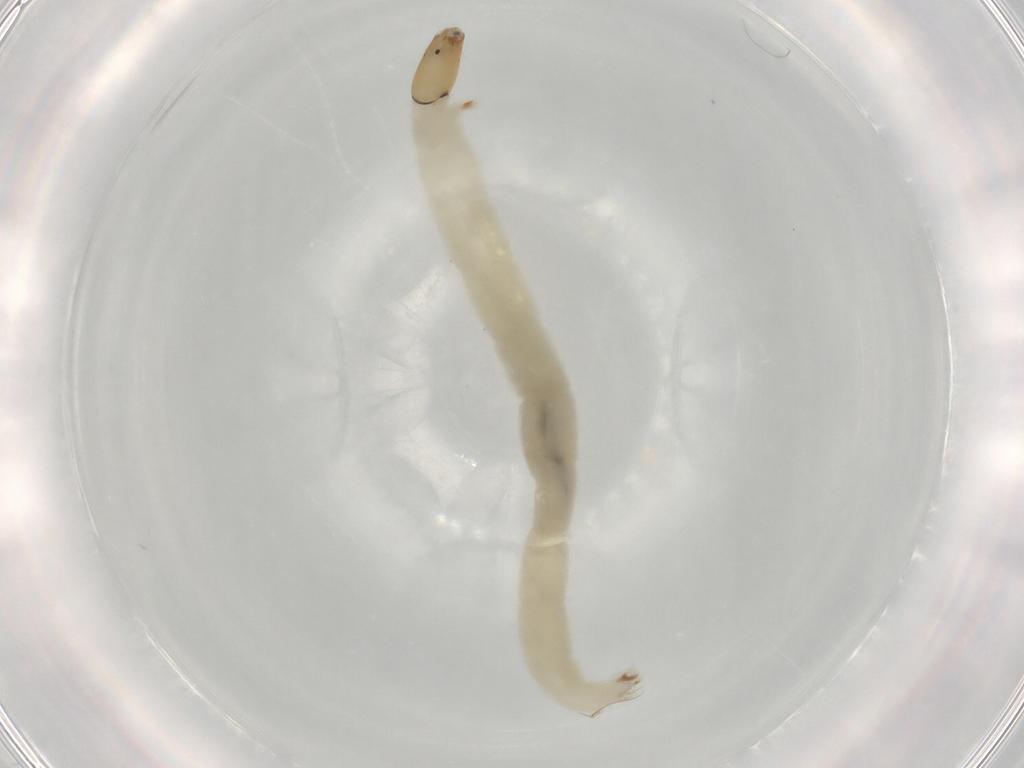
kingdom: Animalia
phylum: Arthropoda
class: Insecta
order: Diptera
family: Chironomidae
